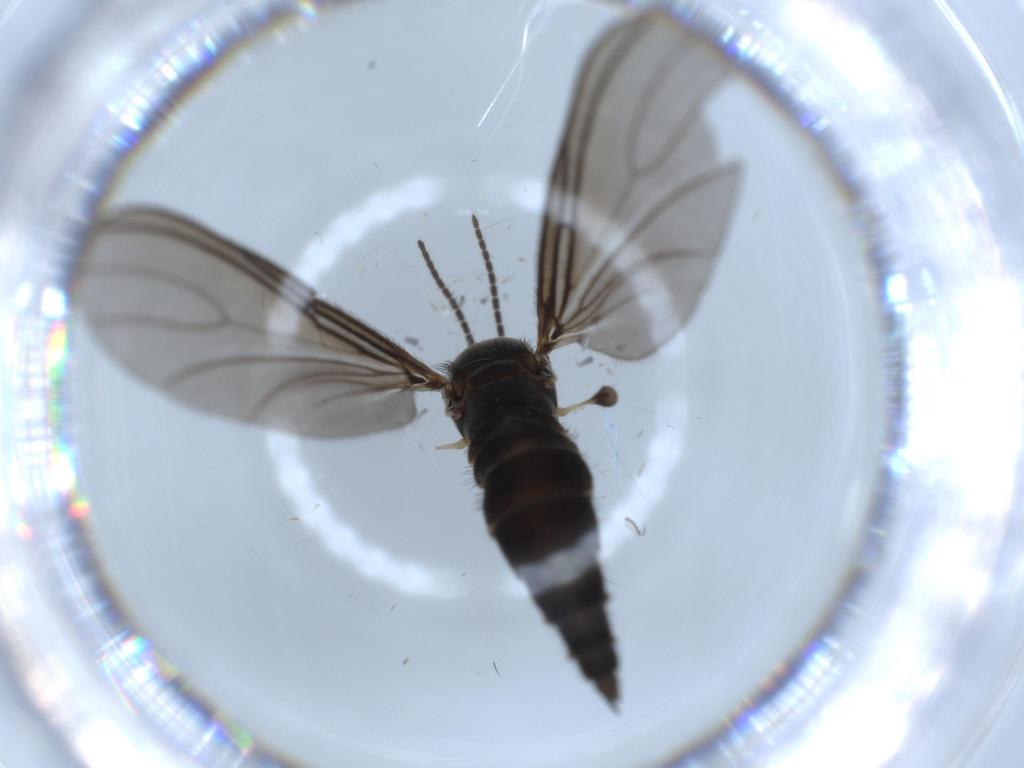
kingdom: Animalia
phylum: Arthropoda
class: Insecta
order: Diptera
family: Sciaridae
